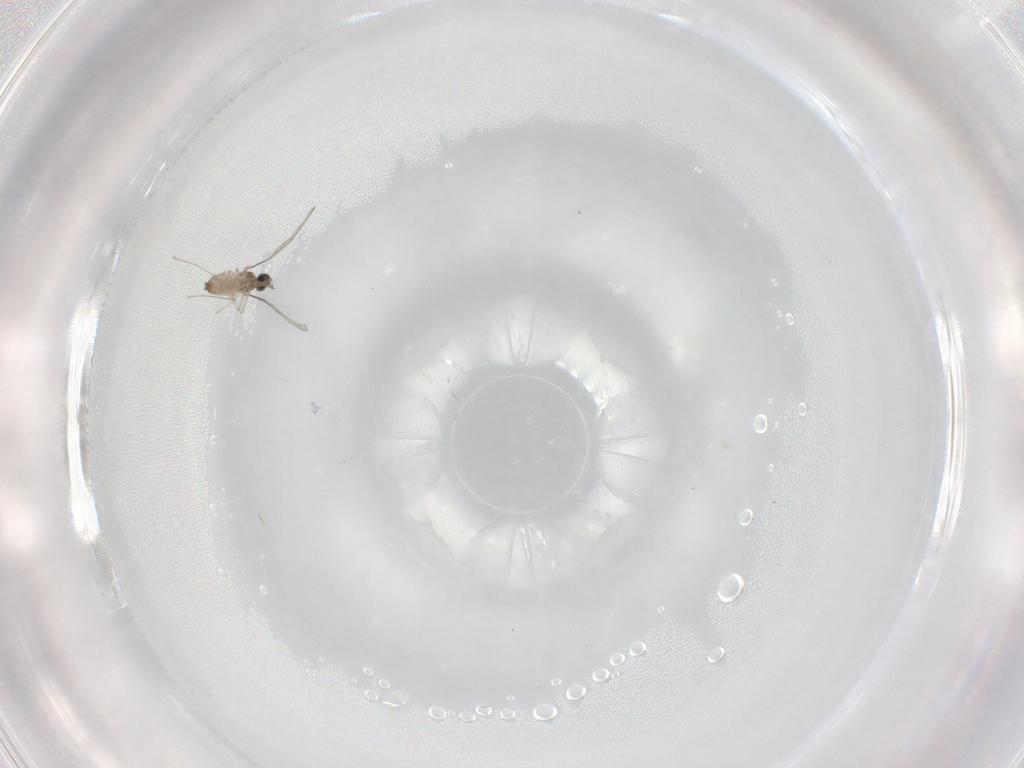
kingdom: Animalia
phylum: Arthropoda
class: Insecta
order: Diptera
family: Cecidomyiidae
